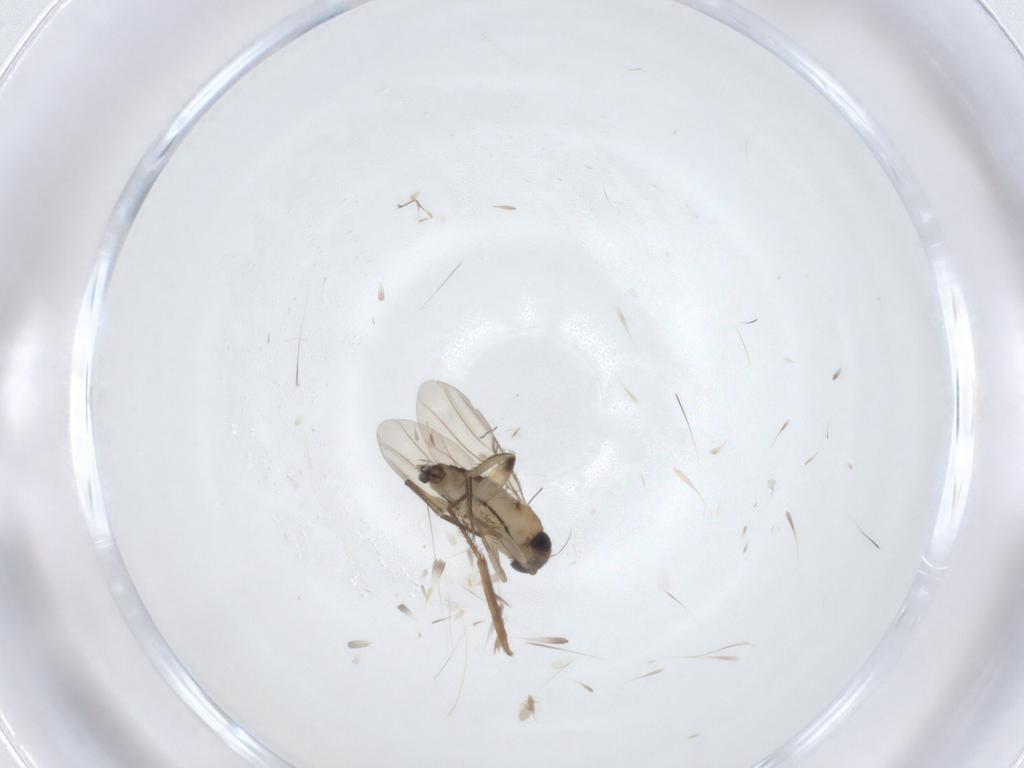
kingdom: Animalia
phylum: Arthropoda
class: Insecta
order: Diptera
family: Phoridae
